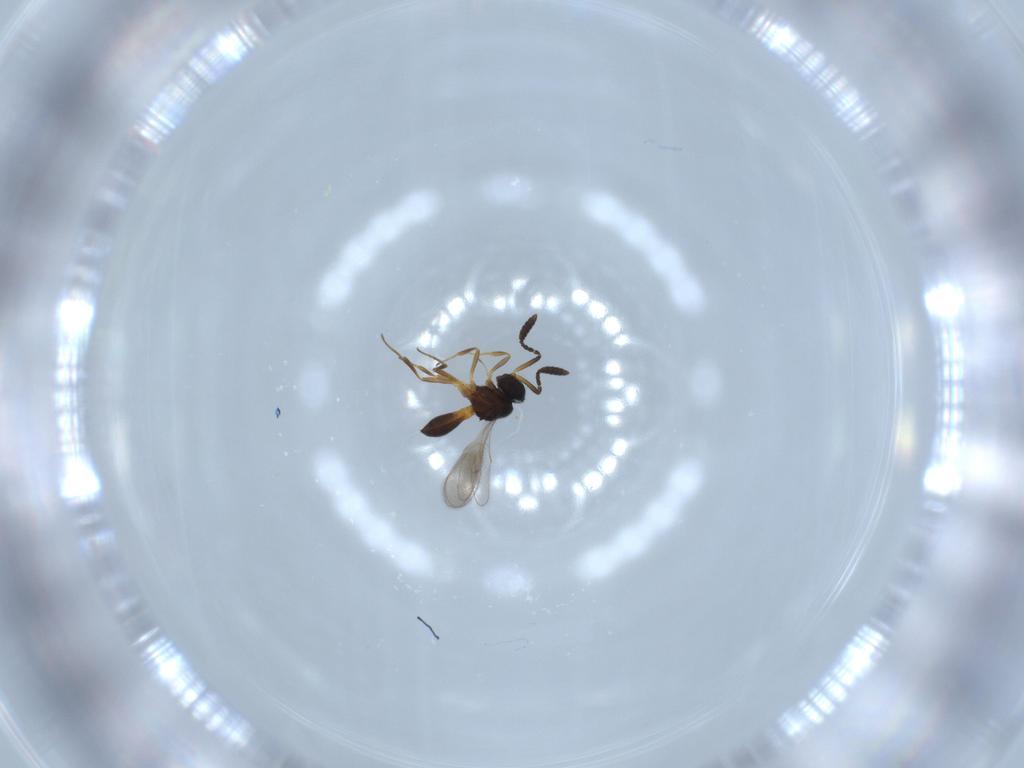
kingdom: Animalia
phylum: Arthropoda
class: Insecta
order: Hymenoptera
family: Scelionidae
